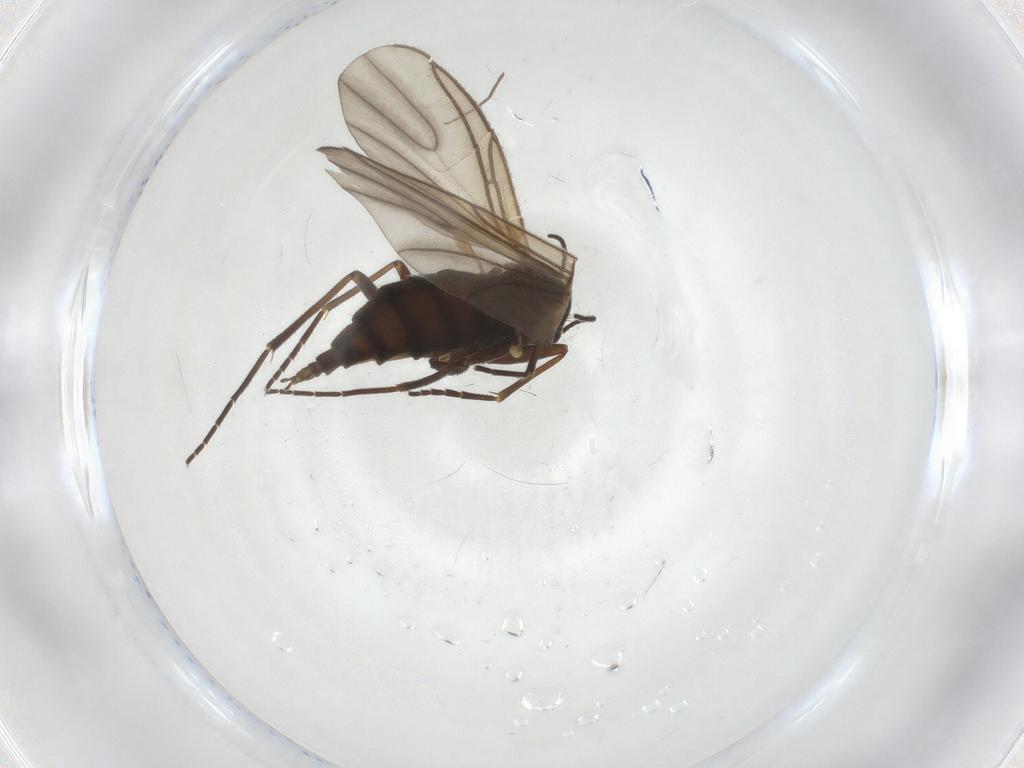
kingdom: Animalia
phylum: Arthropoda
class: Insecta
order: Diptera
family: Sciaridae
